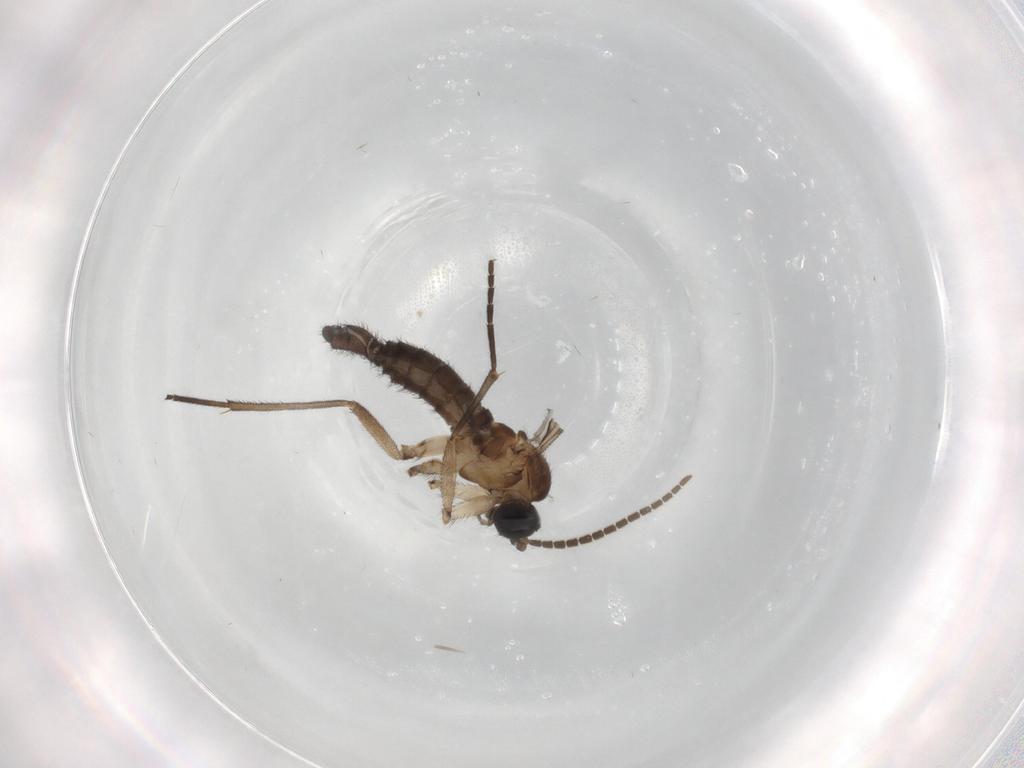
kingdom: Animalia
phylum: Arthropoda
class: Insecta
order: Diptera
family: Sciaridae
